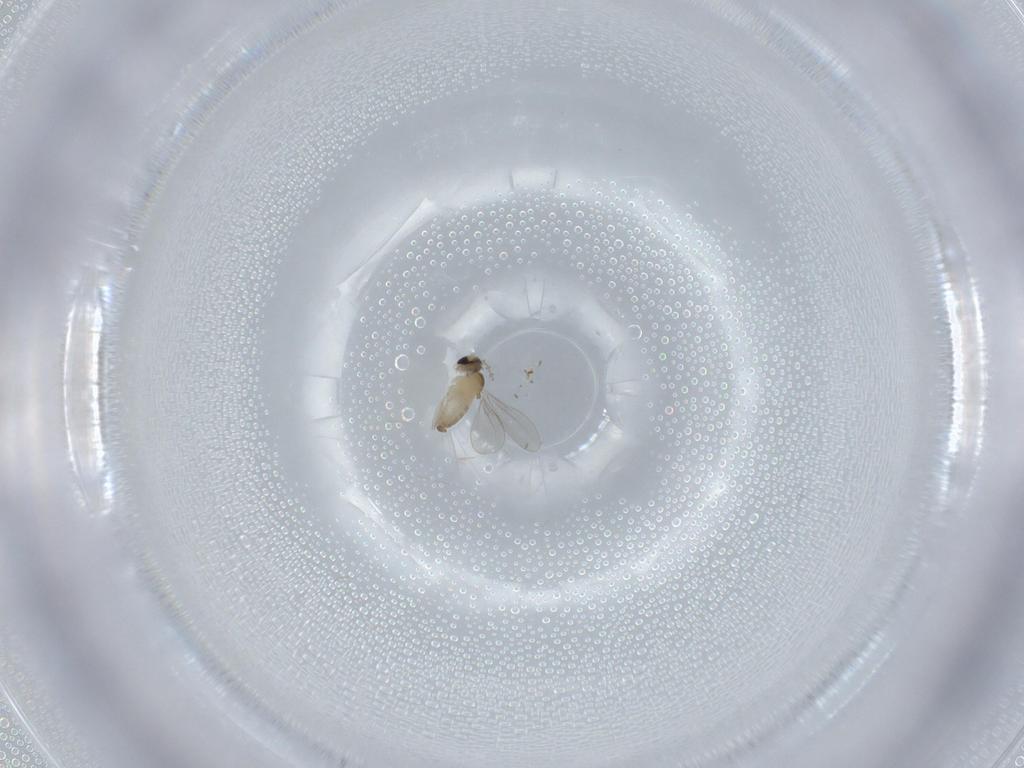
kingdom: Animalia
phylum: Arthropoda
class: Insecta
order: Diptera
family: Cecidomyiidae
